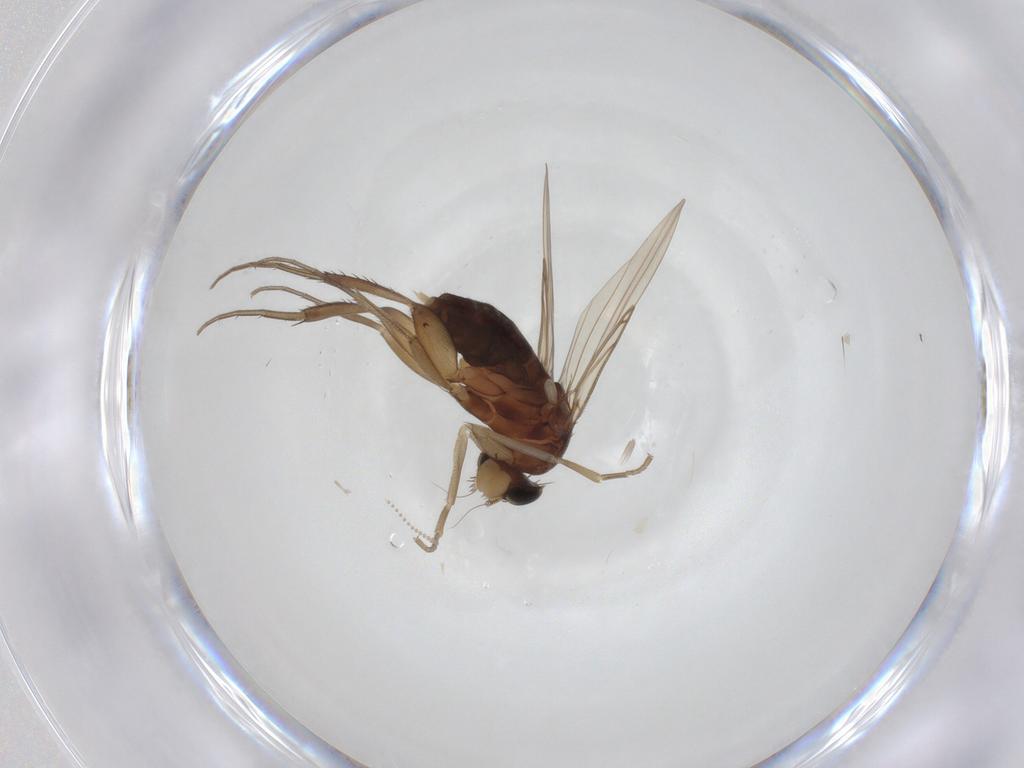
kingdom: Animalia
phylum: Arthropoda
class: Insecta
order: Diptera
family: Phoridae
